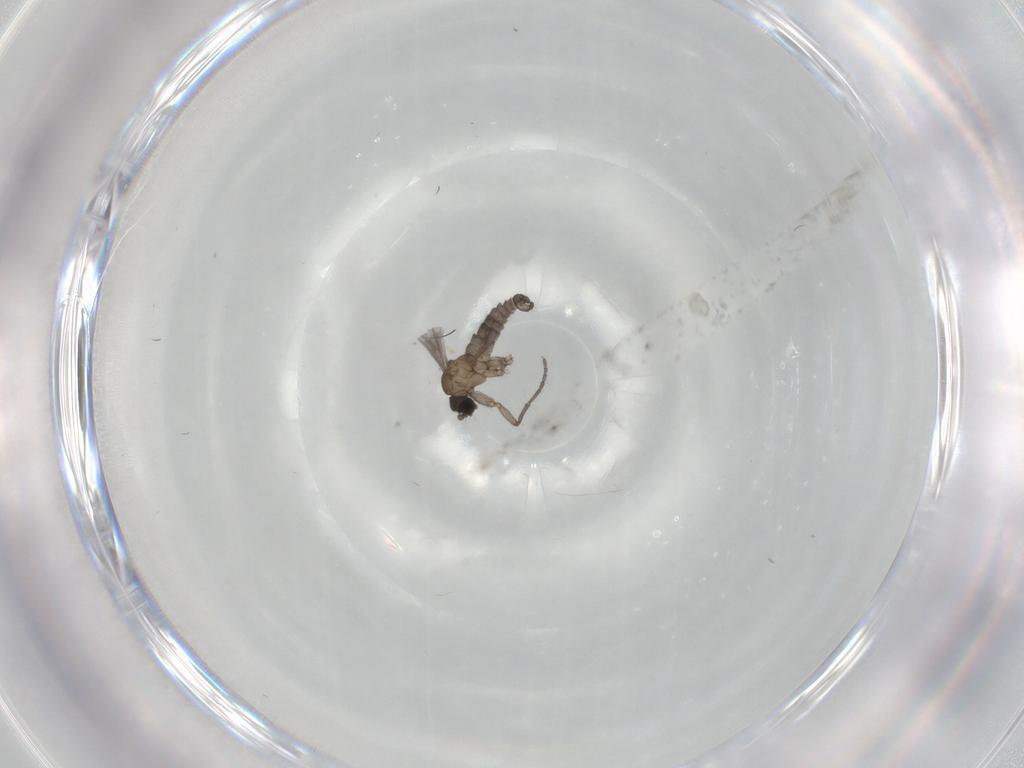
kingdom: Animalia
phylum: Arthropoda
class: Insecta
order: Diptera
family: Sciaridae
